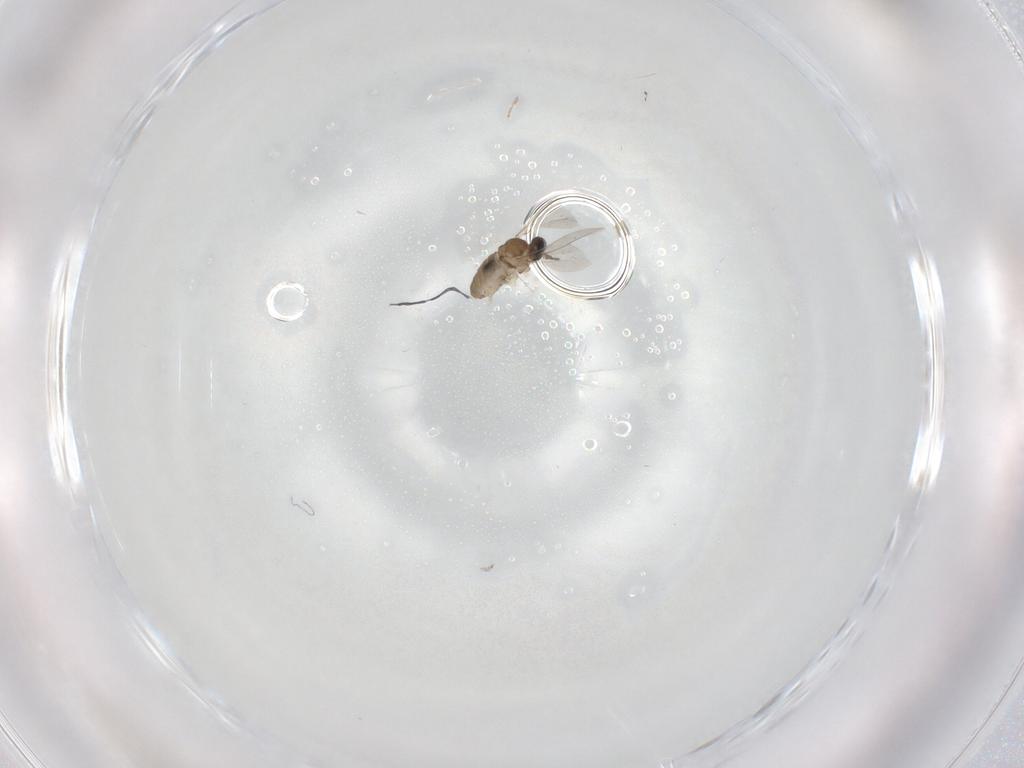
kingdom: Animalia
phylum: Arthropoda
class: Insecta
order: Diptera
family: Cecidomyiidae
